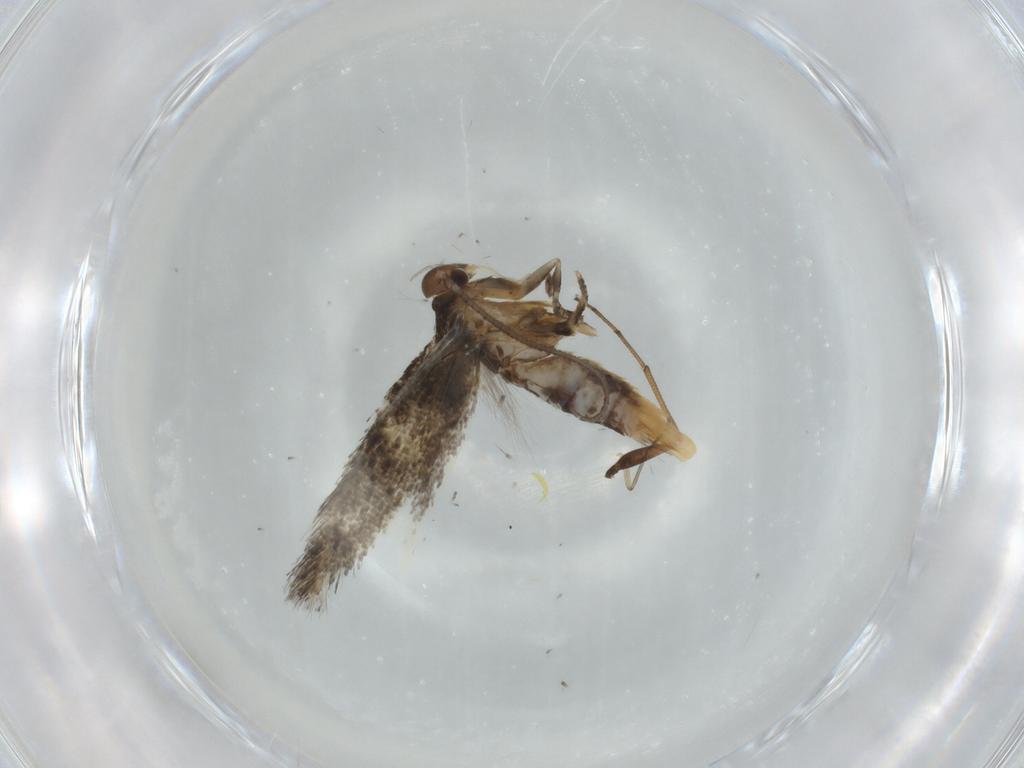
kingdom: Animalia
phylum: Arthropoda
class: Insecta
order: Lepidoptera
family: Elachistidae
